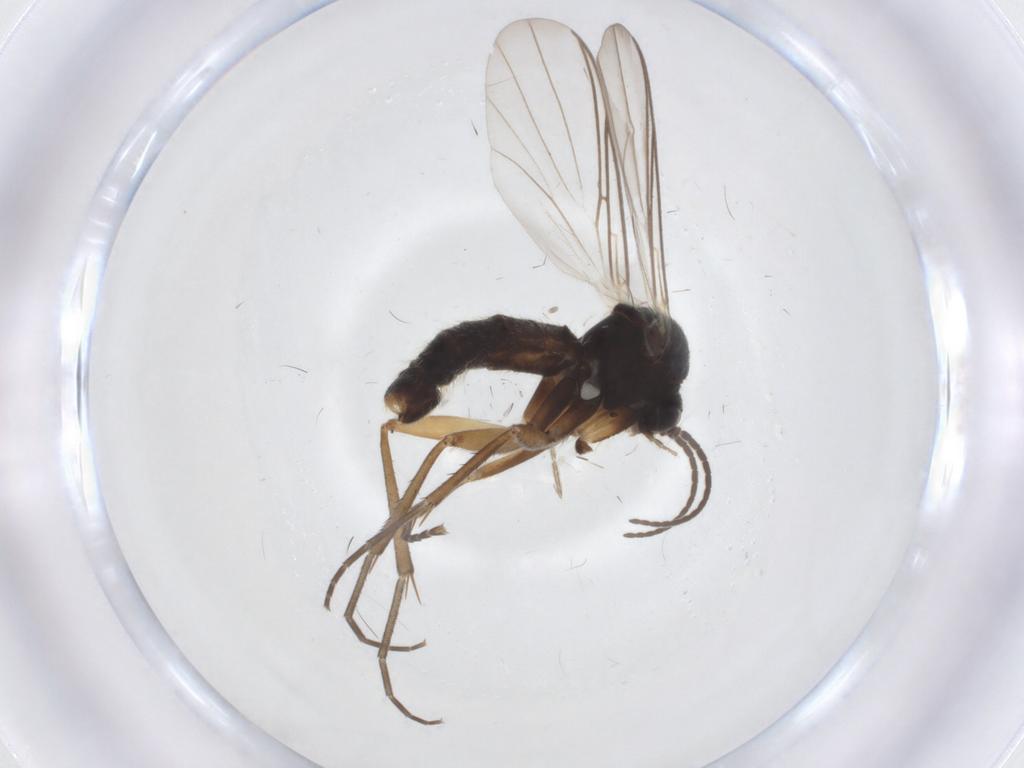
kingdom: Animalia
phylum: Arthropoda
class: Insecta
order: Diptera
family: Mycetophilidae
